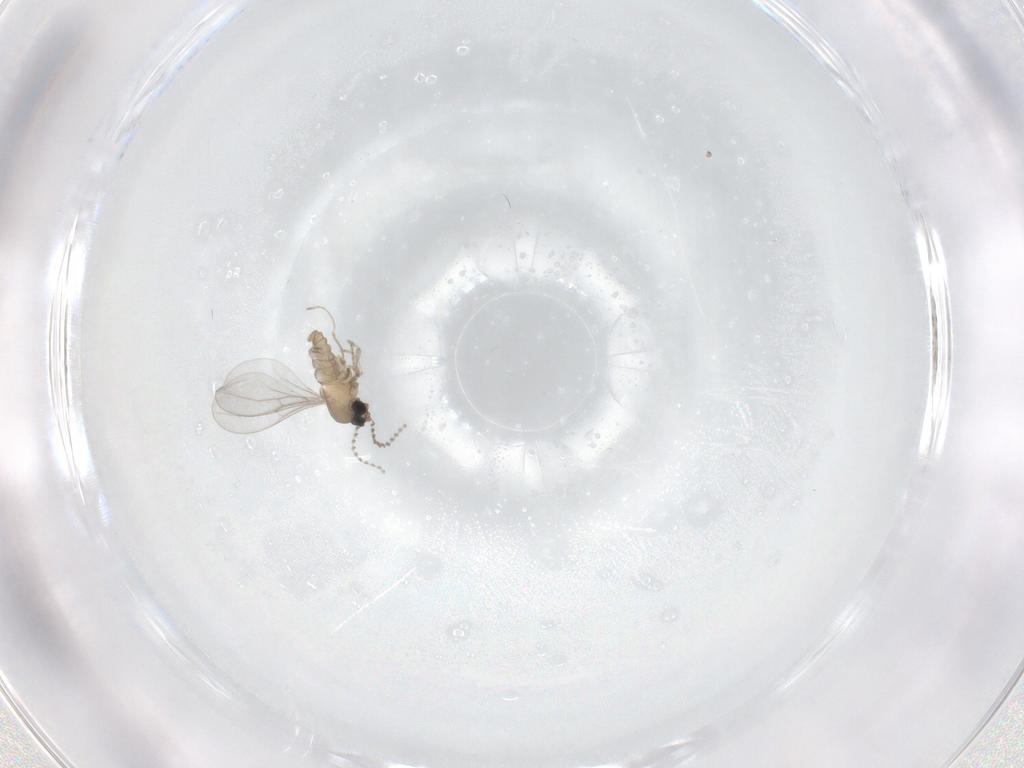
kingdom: Animalia
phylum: Arthropoda
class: Insecta
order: Diptera
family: Cecidomyiidae
